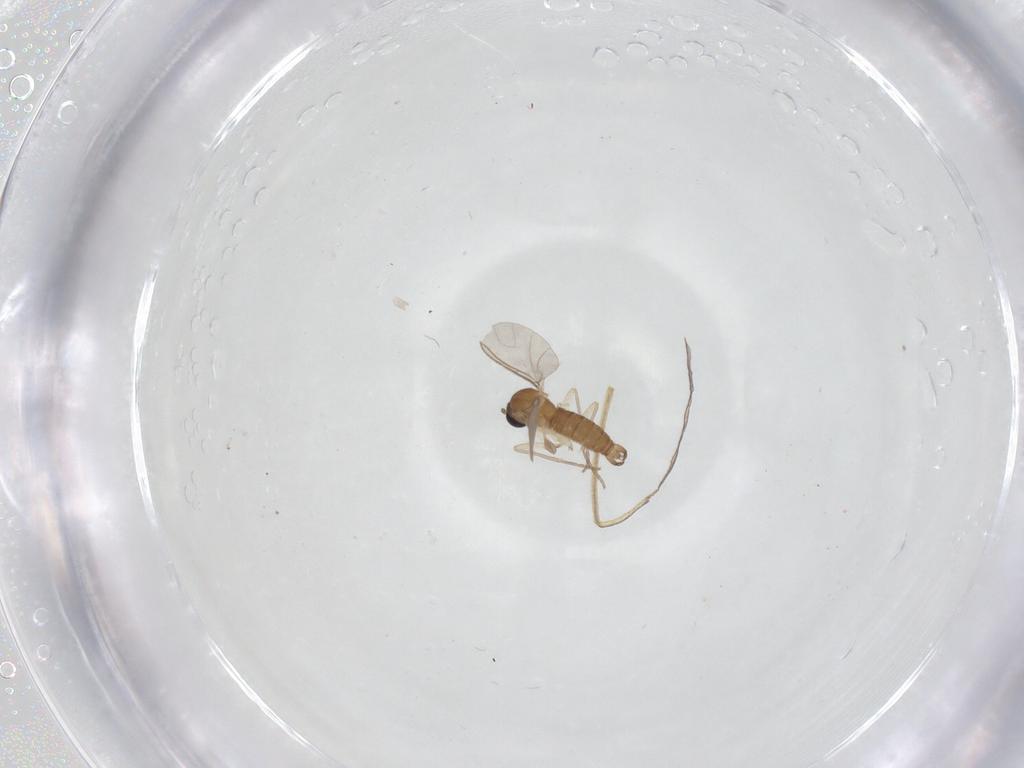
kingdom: Animalia
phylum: Arthropoda
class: Insecta
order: Diptera
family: Sciaridae
